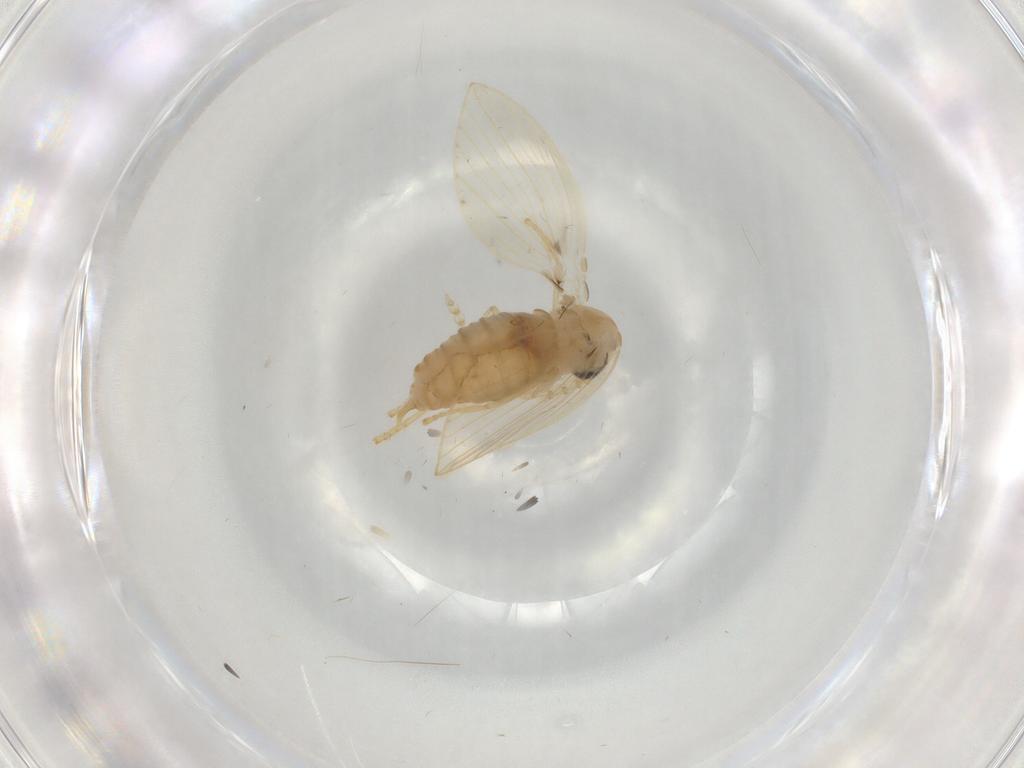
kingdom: Animalia
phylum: Arthropoda
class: Insecta
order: Diptera
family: Psychodidae
